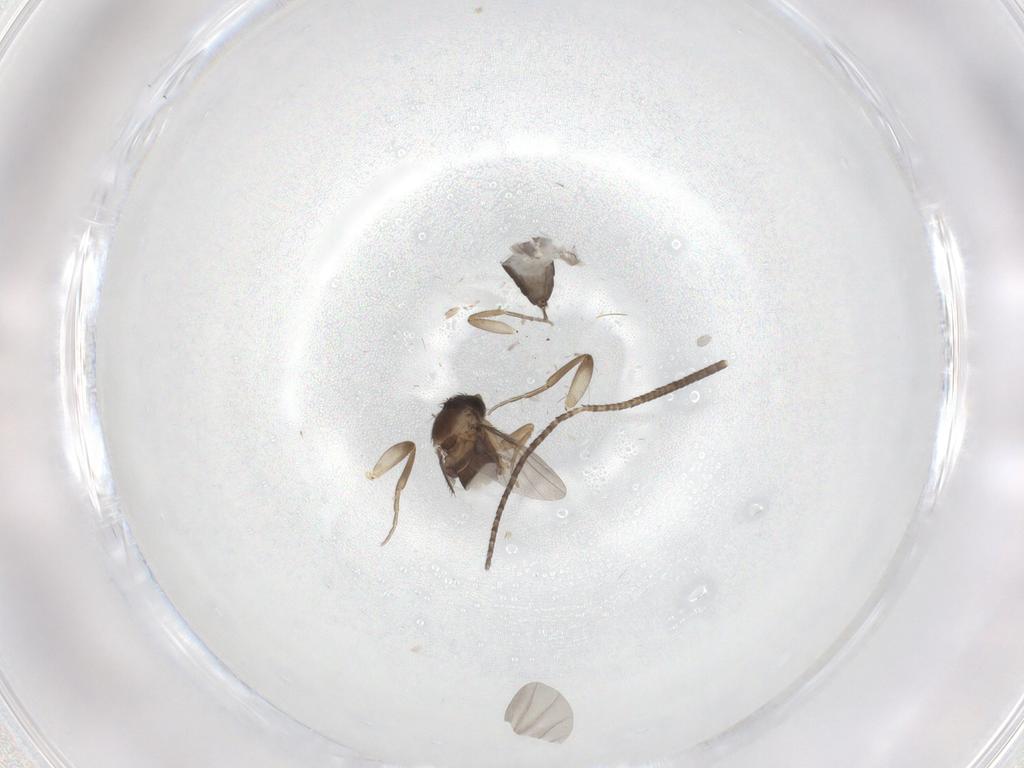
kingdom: Animalia
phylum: Arthropoda
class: Insecta
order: Diptera
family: Phoridae
